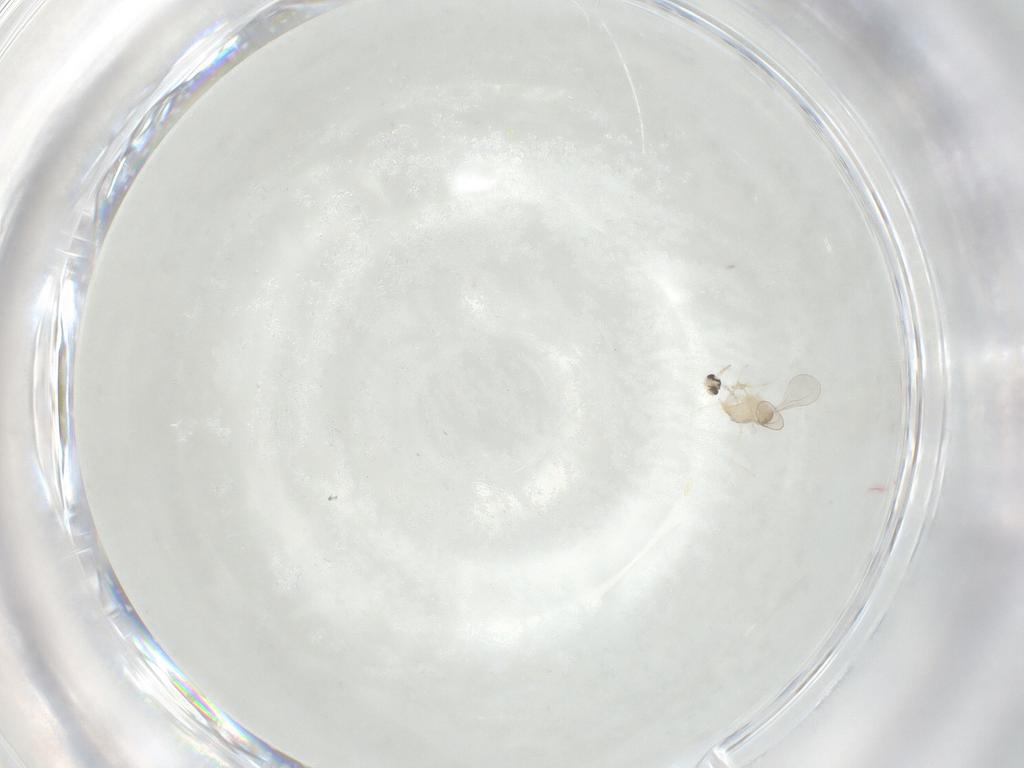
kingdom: Animalia
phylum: Arthropoda
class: Insecta
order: Diptera
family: Cecidomyiidae
